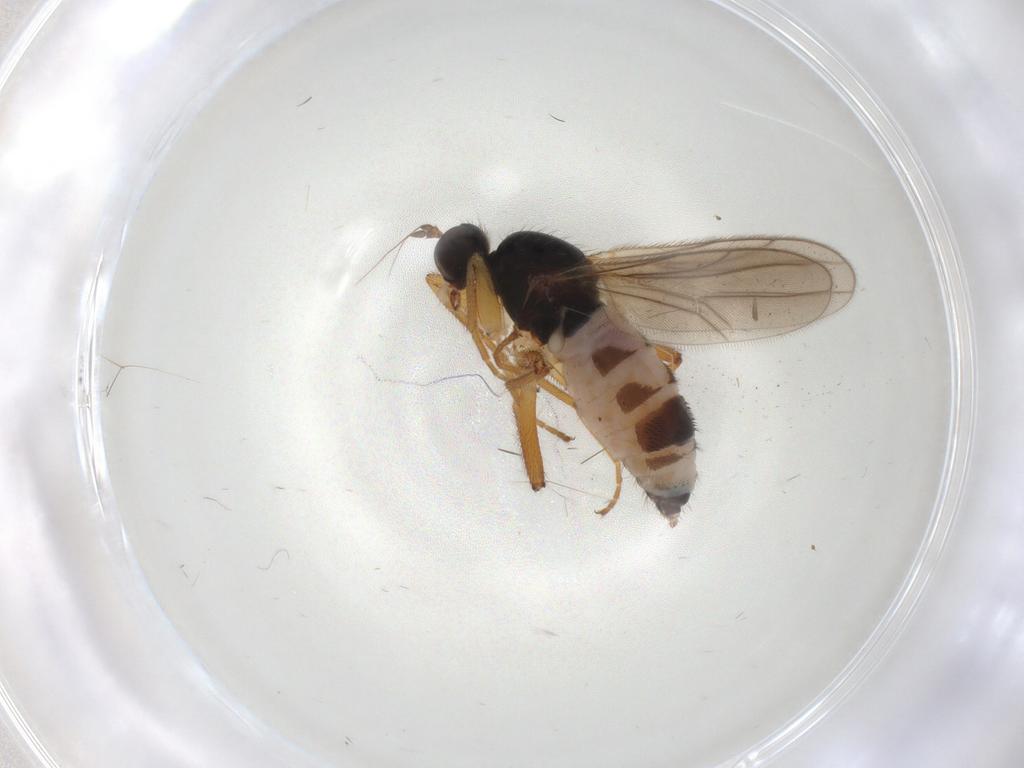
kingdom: Animalia
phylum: Arthropoda
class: Insecta
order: Diptera
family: Hybotidae
